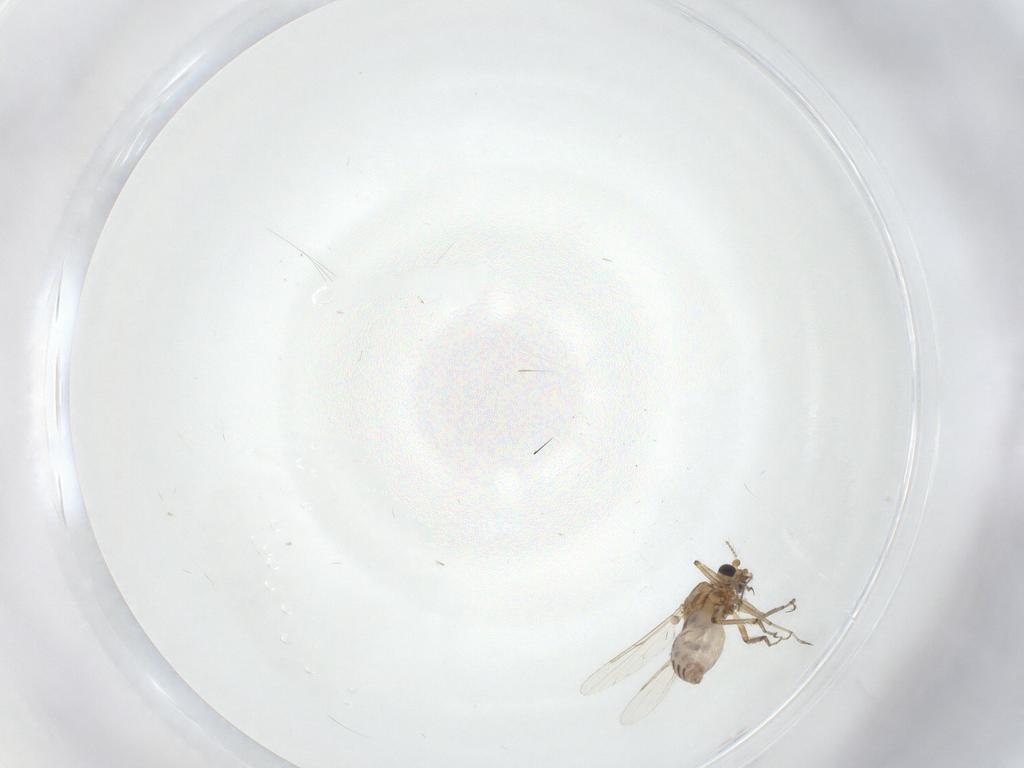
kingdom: Animalia
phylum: Arthropoda
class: Insecta
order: Diptera
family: Ceratopogonidae
